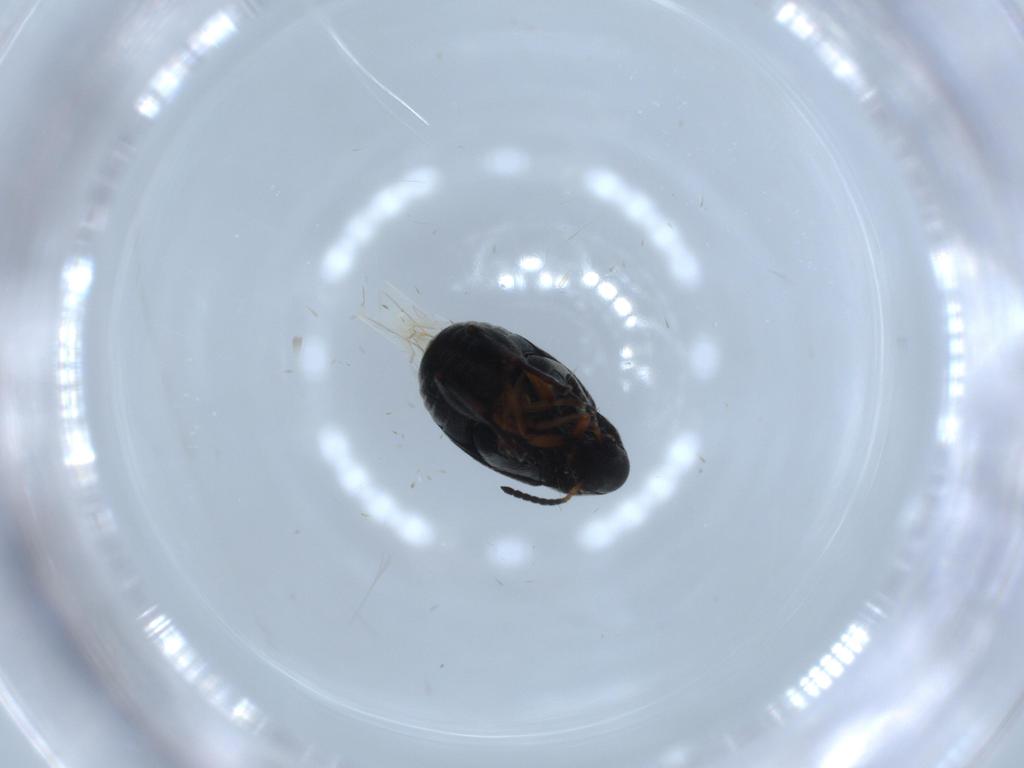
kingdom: Animalia
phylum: Arthropoda
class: Insecta
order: Coleoptera
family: Chrysomelidae
